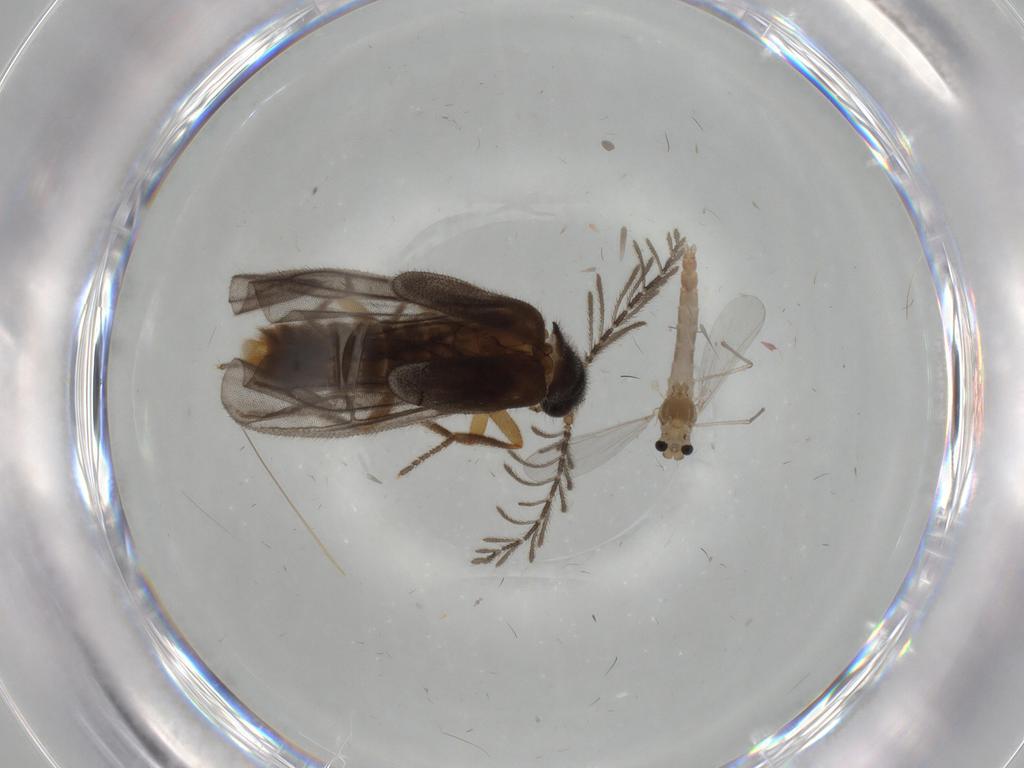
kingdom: Animalia
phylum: Arthropoda
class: Insecta
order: Diptera
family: Chironomidae
